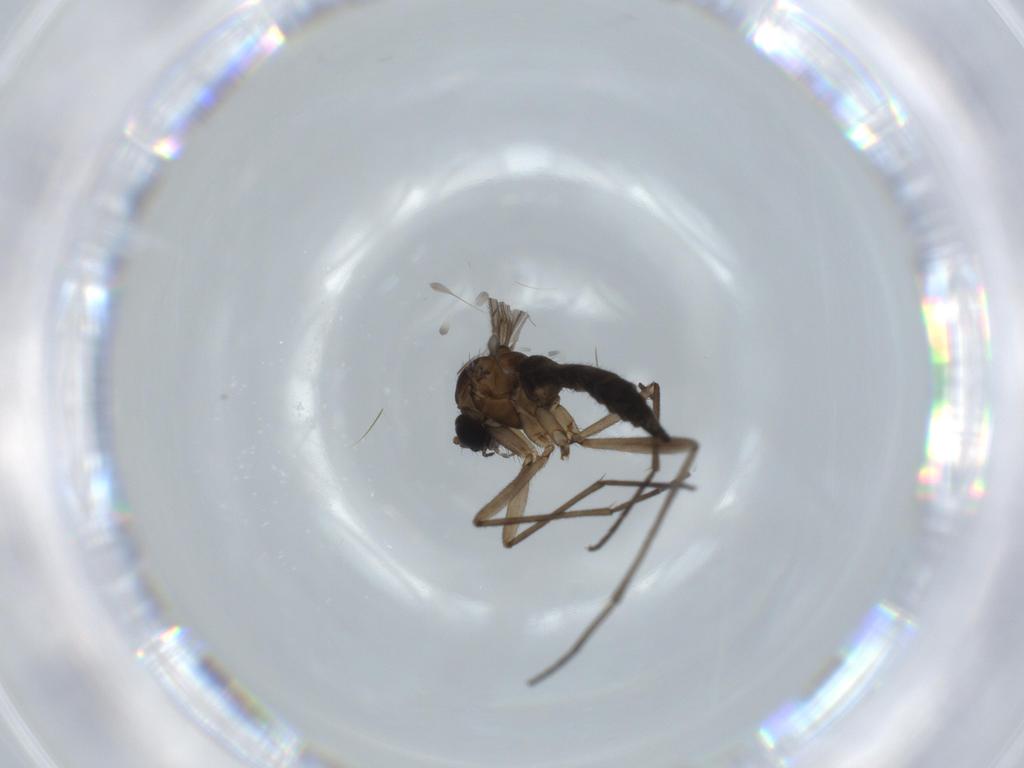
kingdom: Animalia
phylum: Arthropoda
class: Insecta
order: Diptera
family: Sciaridae
